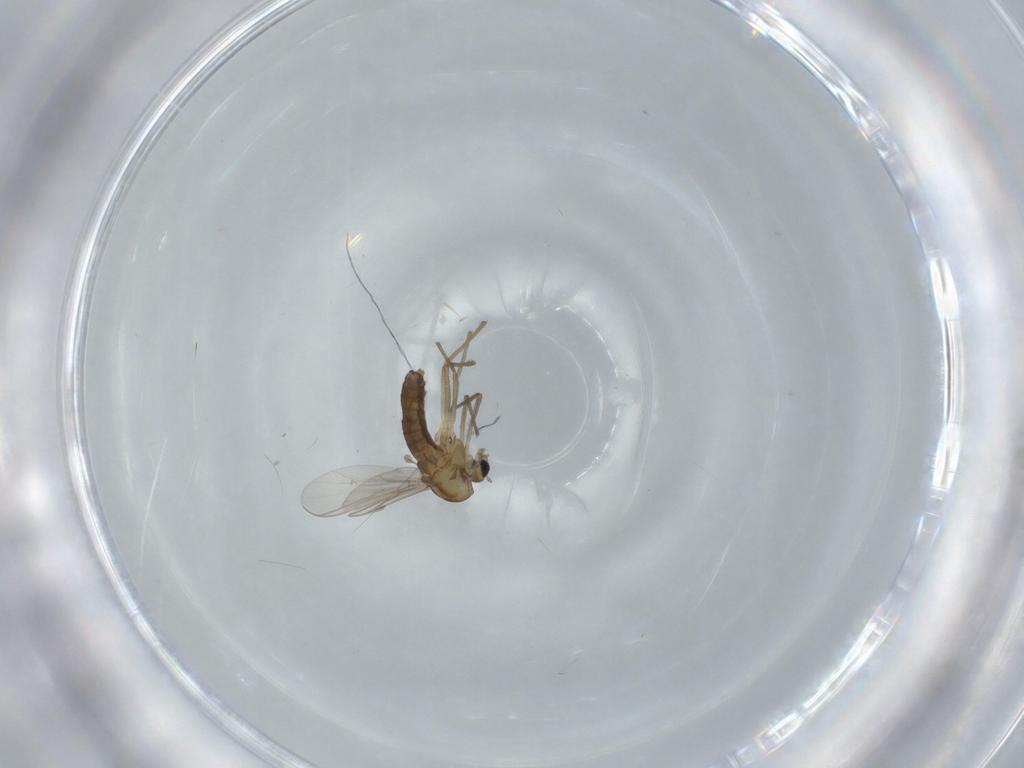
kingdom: Animalia
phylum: Arthropoda
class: Insecta
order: Diptera
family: Chironomidae
